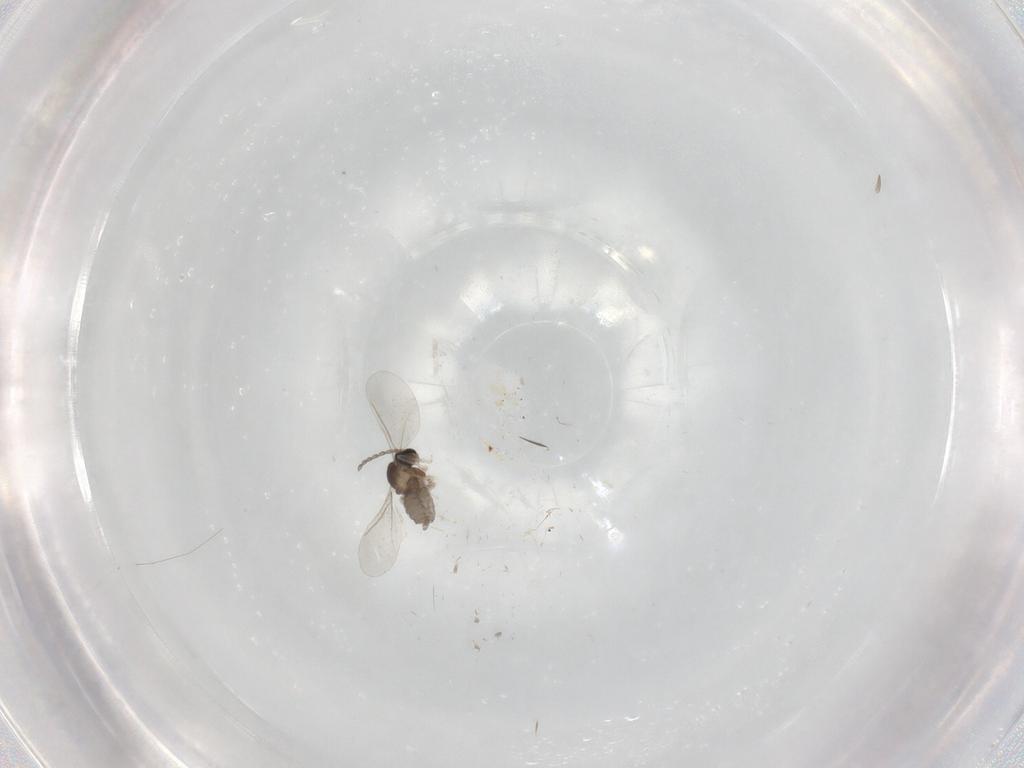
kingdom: Animalia
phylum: Arthropoda
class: Insecta
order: Diptera
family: Cecidomyiidae
